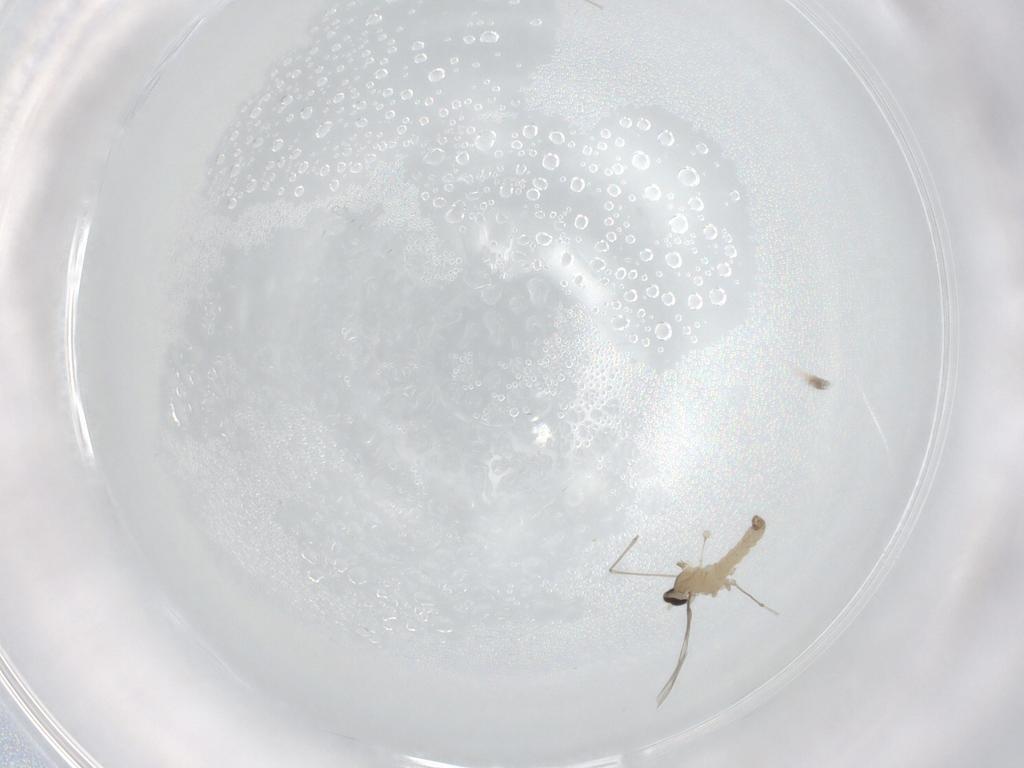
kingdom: Animalia
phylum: Arthropoda
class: Insecta
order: Diptera
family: Cecidomyiidae
